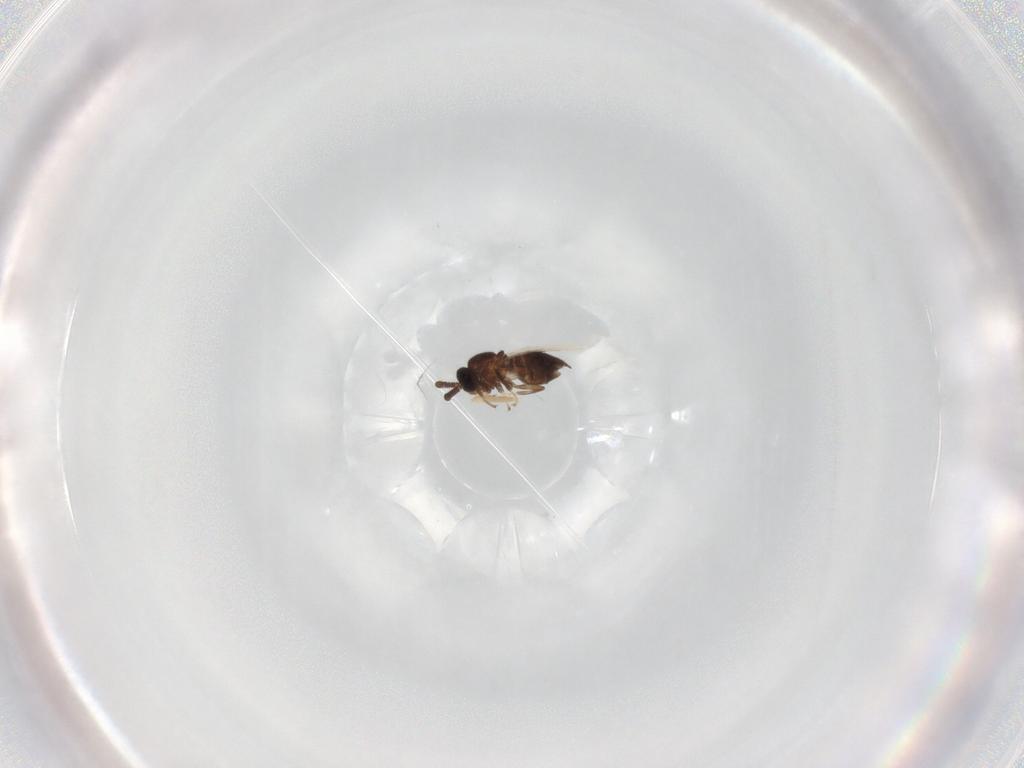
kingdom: Animalia
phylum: Arthropoda
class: Insecta
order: Diptera
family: Scatopsidae
